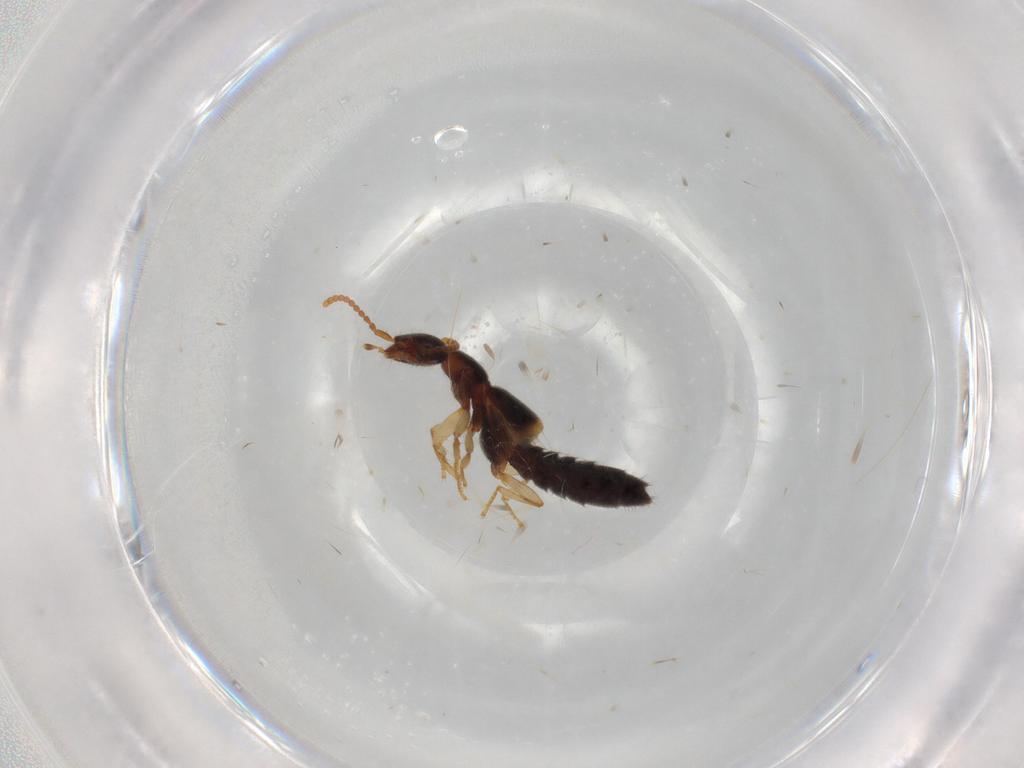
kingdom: Animalia
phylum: Arthropoda
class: Insecta
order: Coleoptera
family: Staphylinidae
